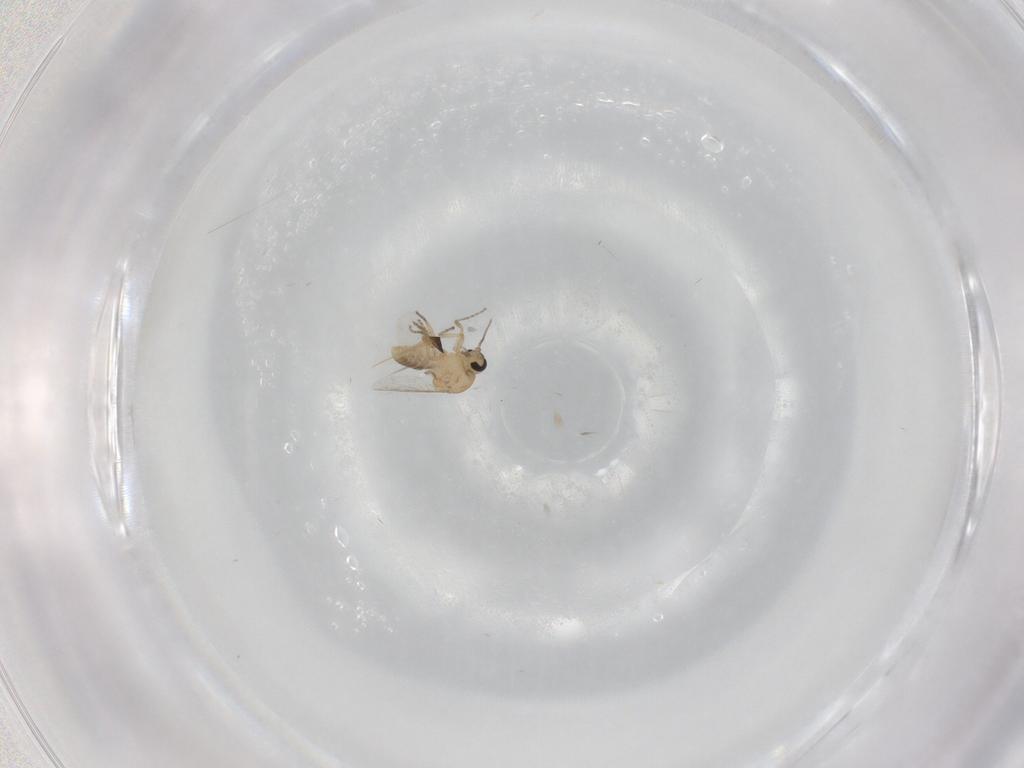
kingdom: Animalia
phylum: Arthropoda
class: Insecta
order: Diptera
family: Ceratopogonidae
